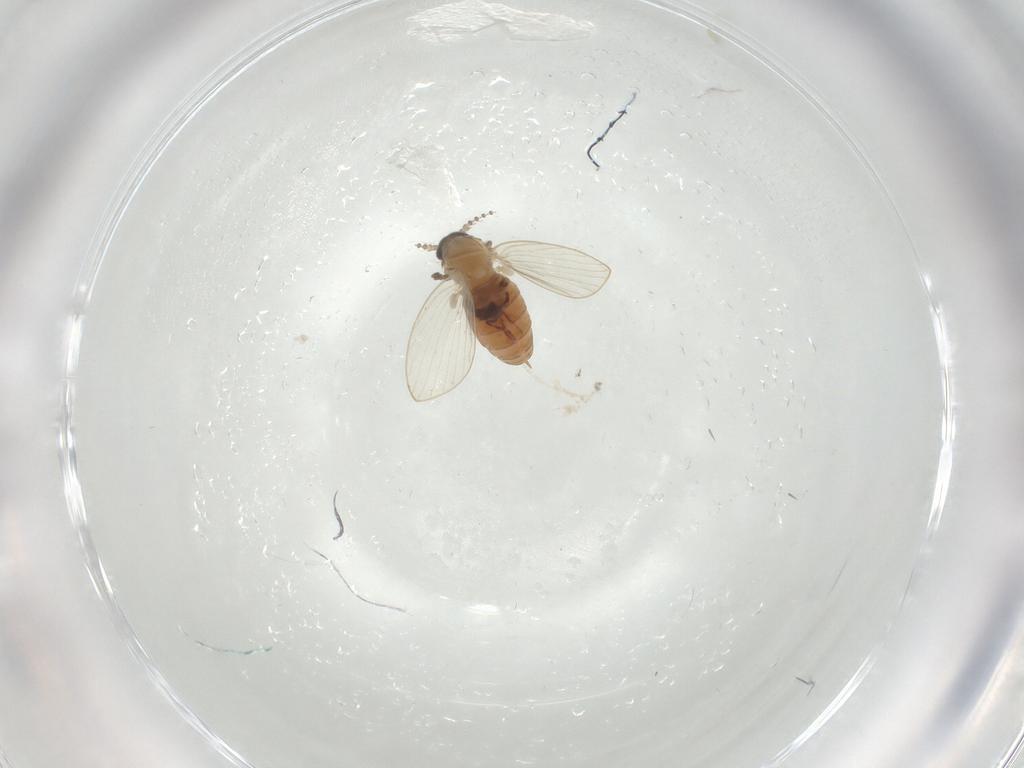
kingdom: Animalia
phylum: Arthropoda
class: Insecta
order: Diptera
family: Psychodidae
